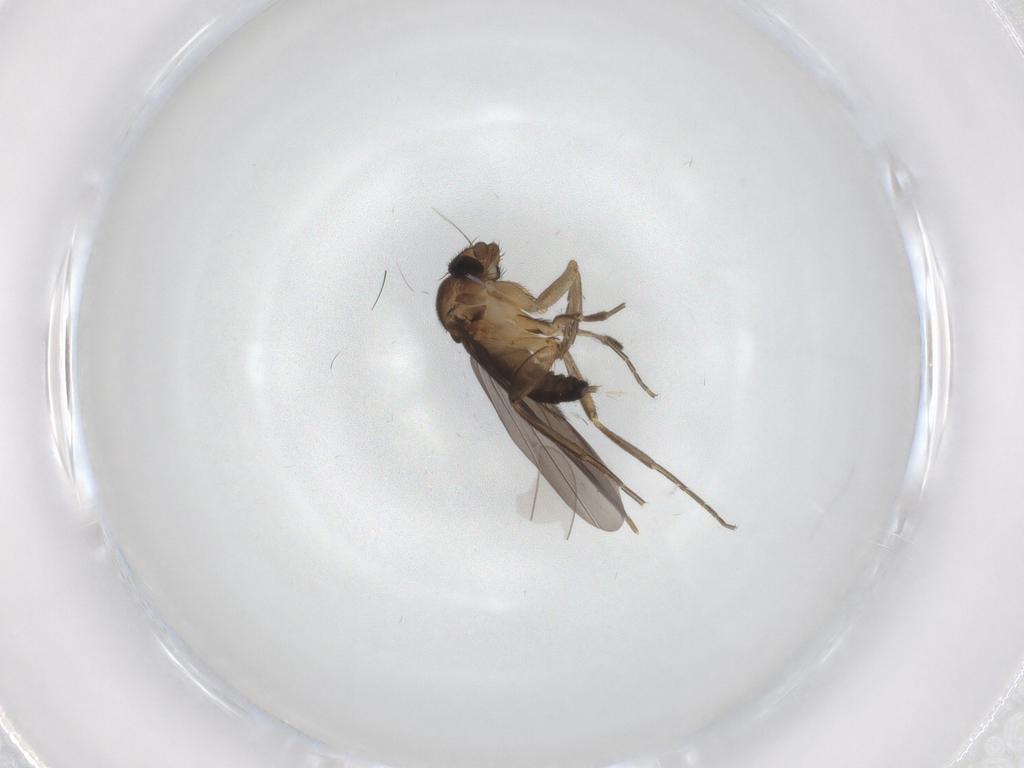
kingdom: Animalia
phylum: Arthropoda
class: Insecta
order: Diptera
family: Phoridae
